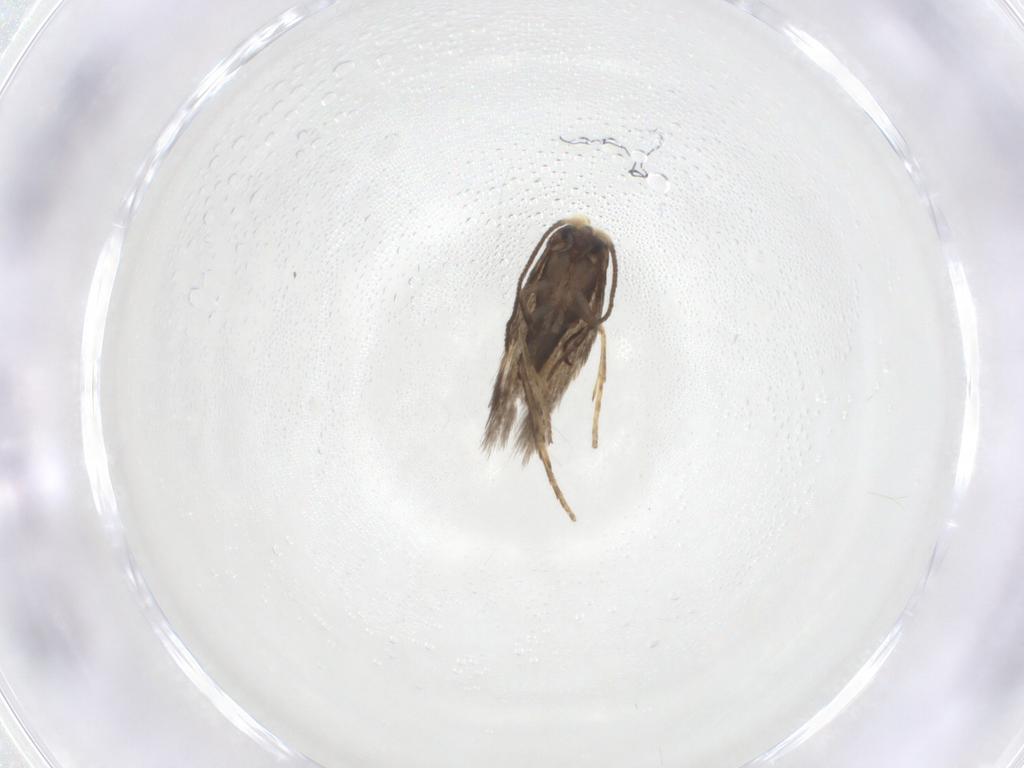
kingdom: Animalia
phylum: Arthropoda
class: Insecta
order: Lepidoptera
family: Nepticulidae
